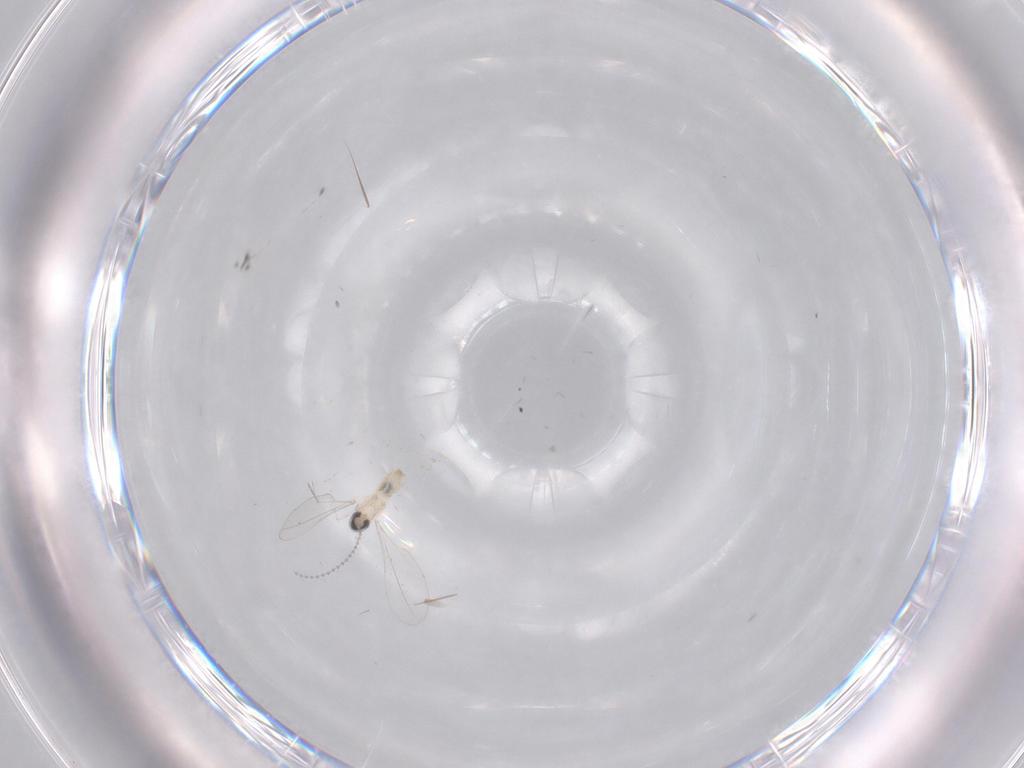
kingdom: Animalia
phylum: Arthropoda
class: Insecta
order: Diptera
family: Cecidomyiidae
